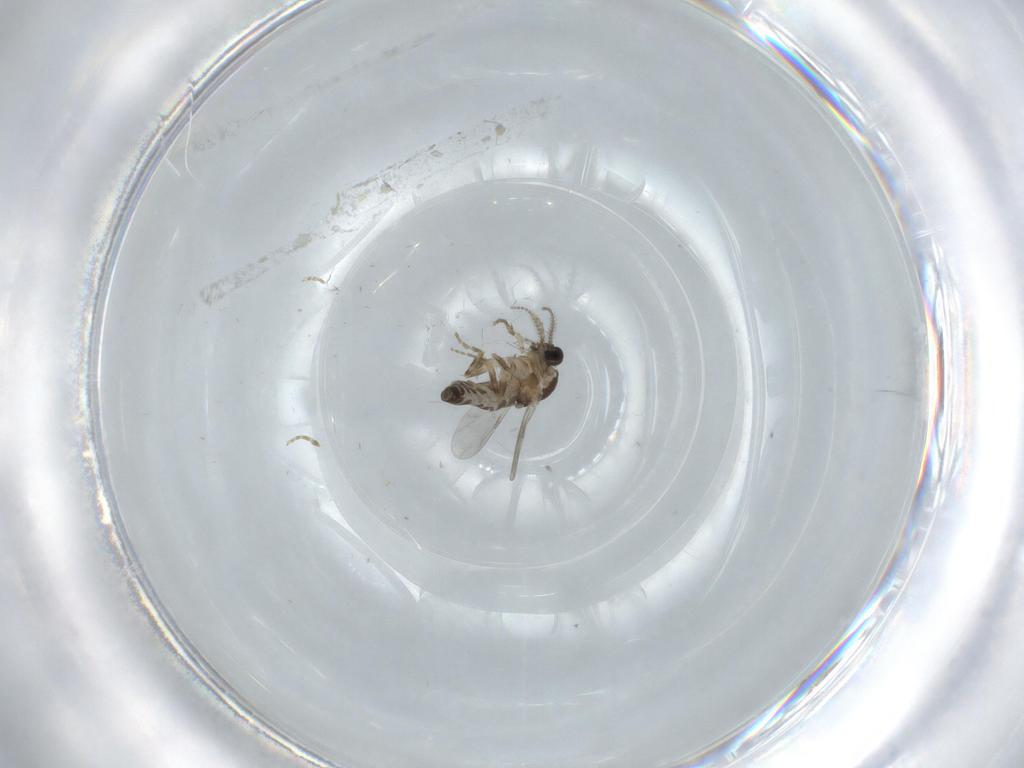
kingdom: Animalia
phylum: Arthropoda
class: Insecta
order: Diptera
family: Ceratopogonidae
